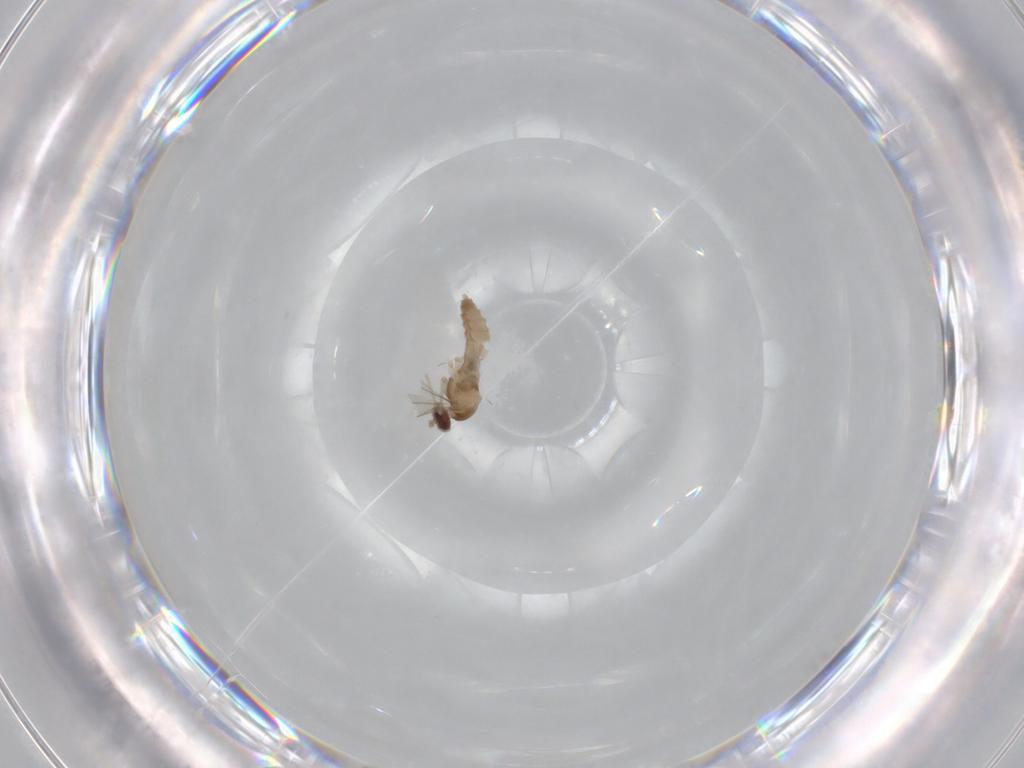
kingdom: Animalia
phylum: Arthropoda
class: Insecta
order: Diptera
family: Cecidomyiidae
